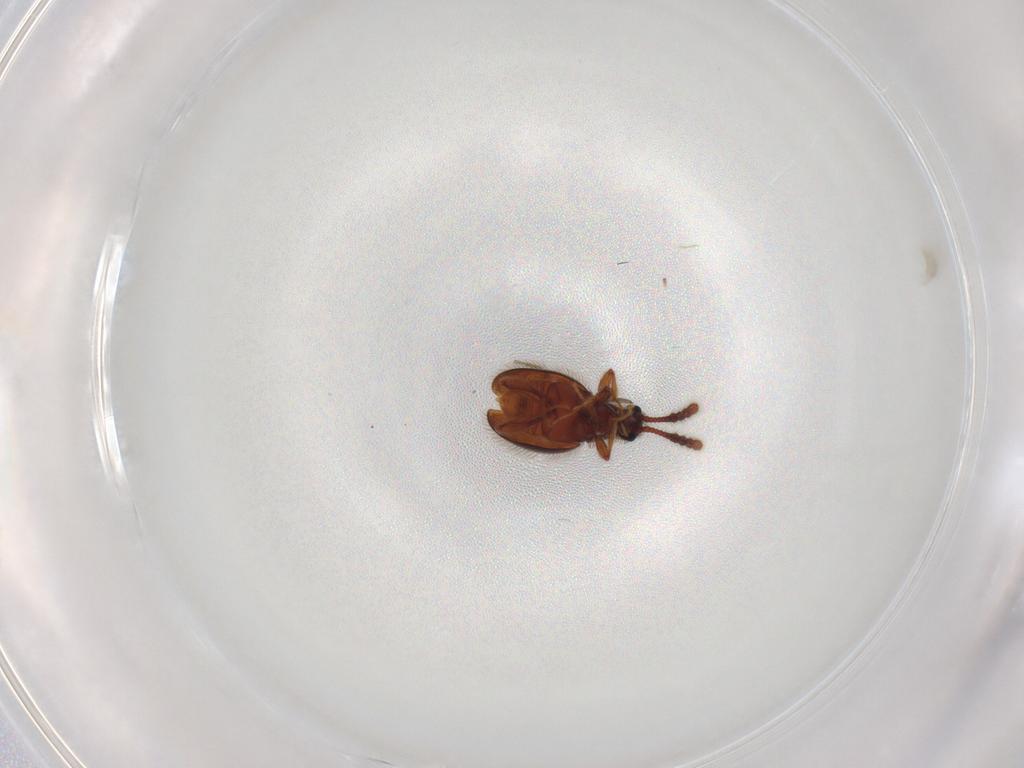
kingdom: Animalia
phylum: Arthropoda
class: Insecta
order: Coleoptera
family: Staphylinidae
